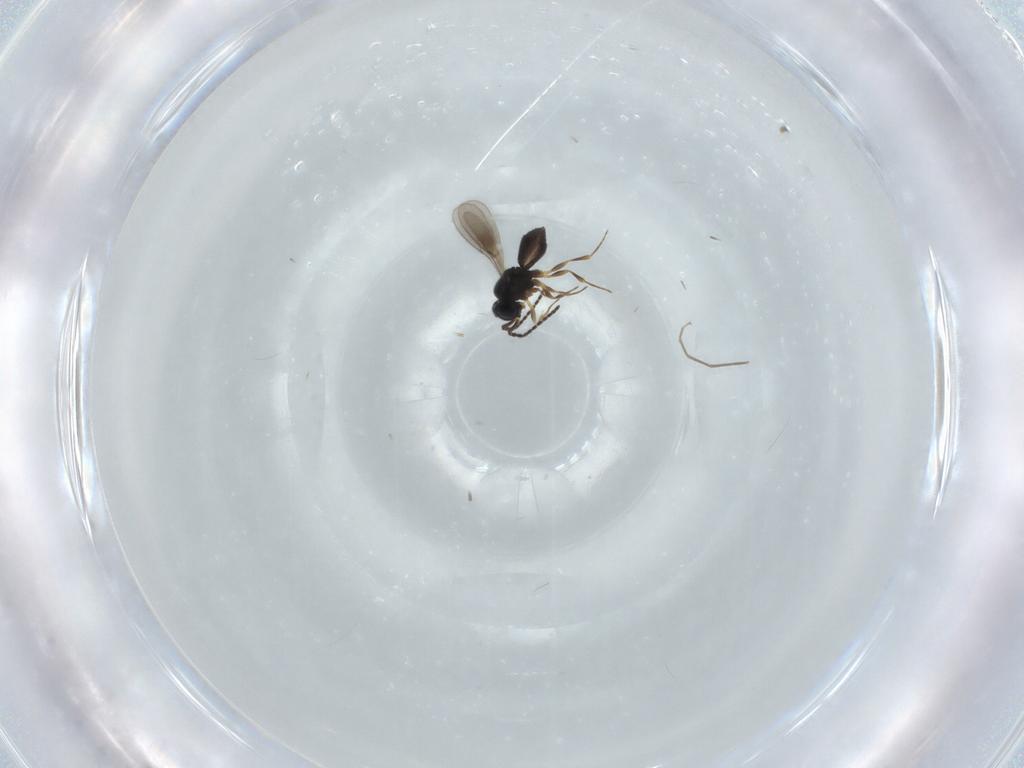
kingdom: Animalia
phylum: Arthropoda
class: Insecta
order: Hymenoptera
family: Scelionidae
